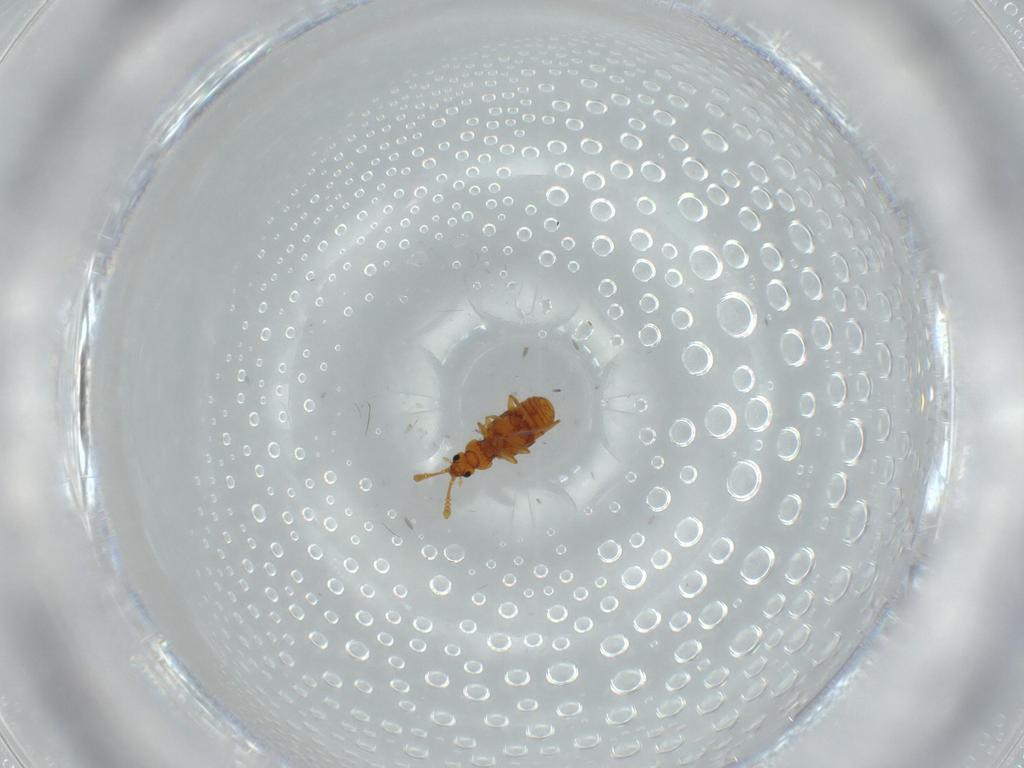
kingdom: Animalia
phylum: Arthropoda
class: Insecta
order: Coleoptera
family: Staphylinidae
